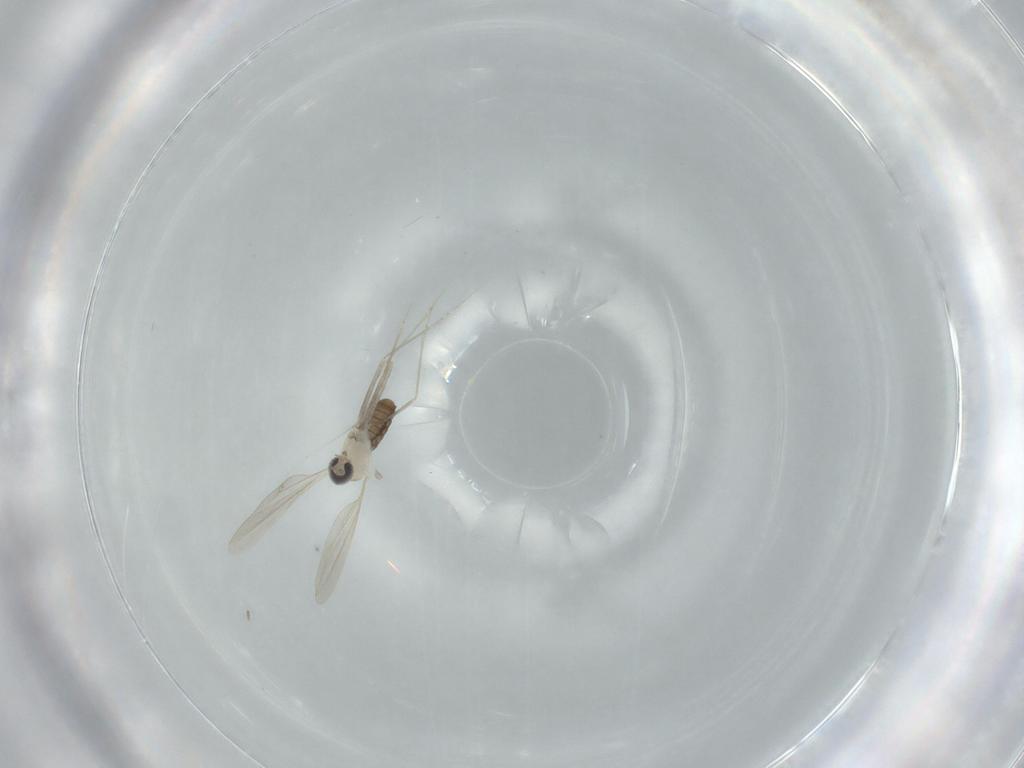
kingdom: Animalia
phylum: Arthropoda
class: Insecta
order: Diptera
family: Cecidomyiidae
